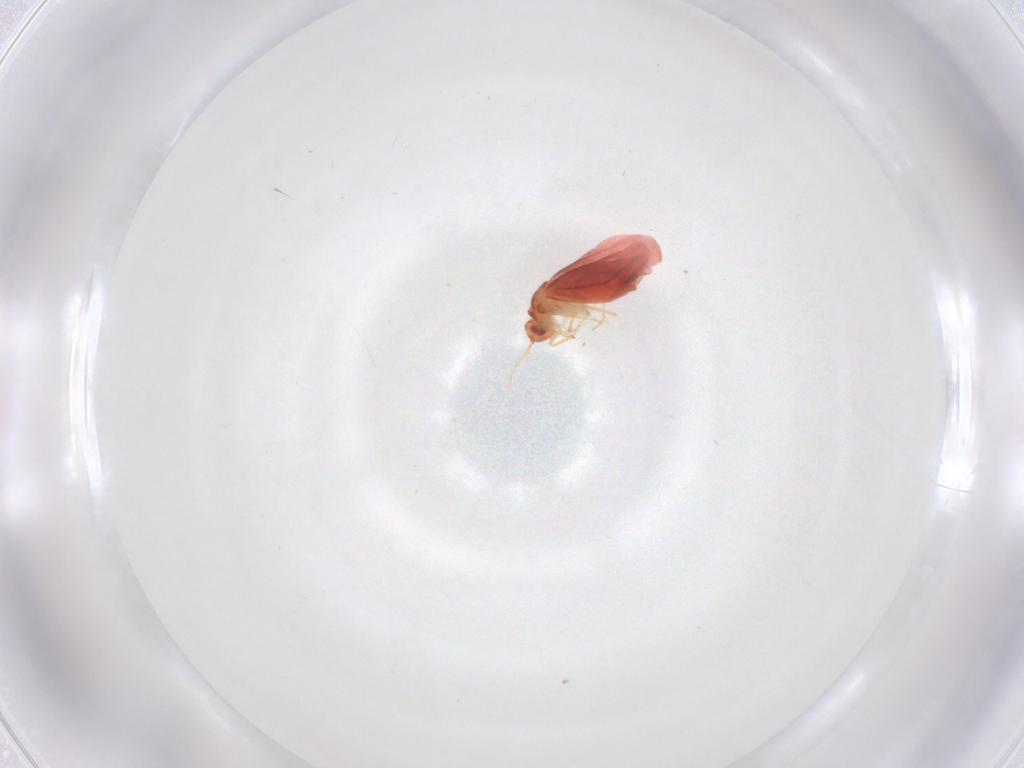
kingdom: Animalia
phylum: Arthropoda
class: Insecta
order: Hemiptera
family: Aleyrodidae
